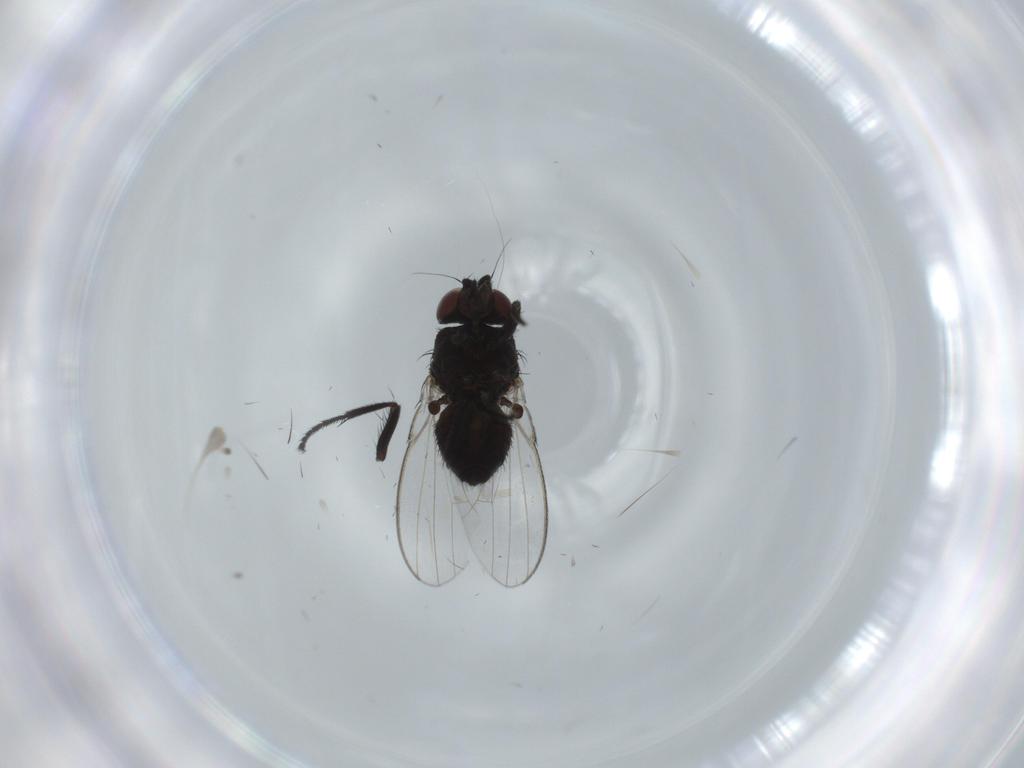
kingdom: Animalia
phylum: Arthropoda
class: Insecta
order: Diptera
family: Milichiidae
